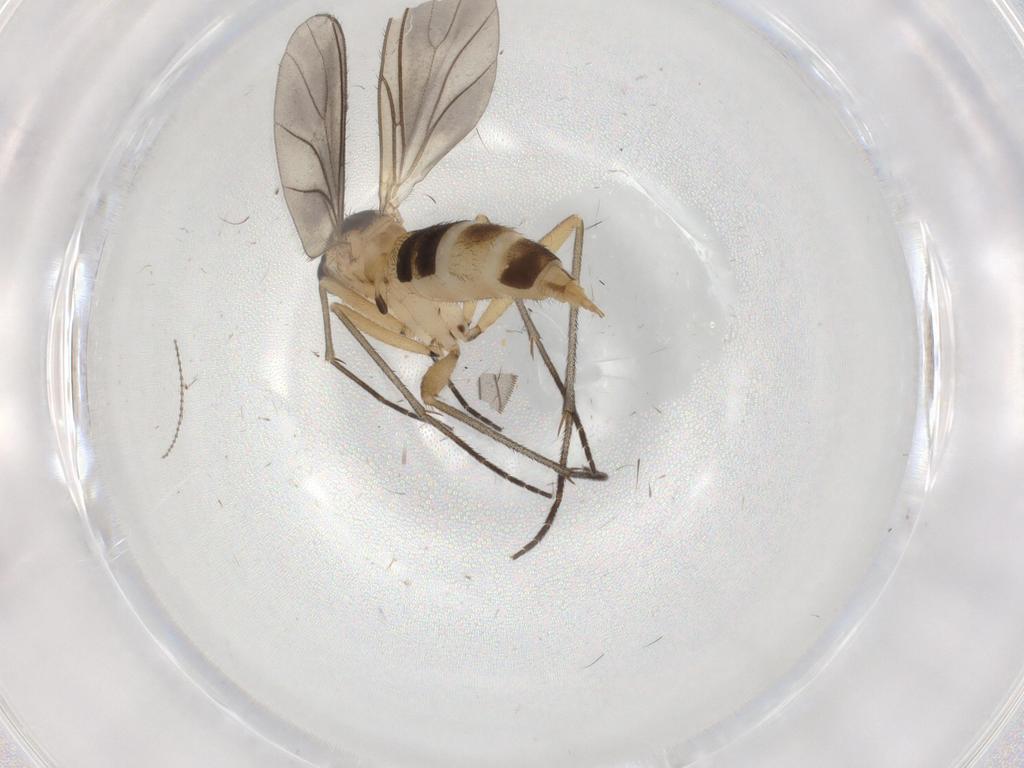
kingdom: Animalia
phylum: Arthropoda
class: Insecta
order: Diptera
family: Sciaridae
